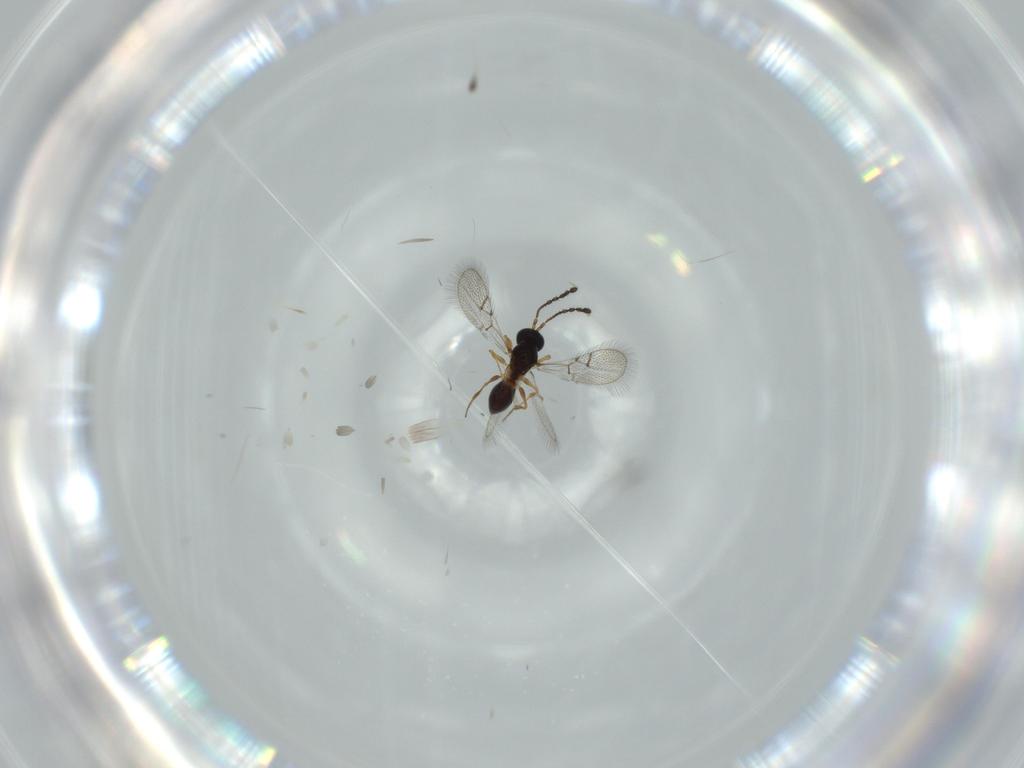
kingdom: Animalia
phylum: Arthropoda
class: Insecta
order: Hymenoptera
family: Figitidae
